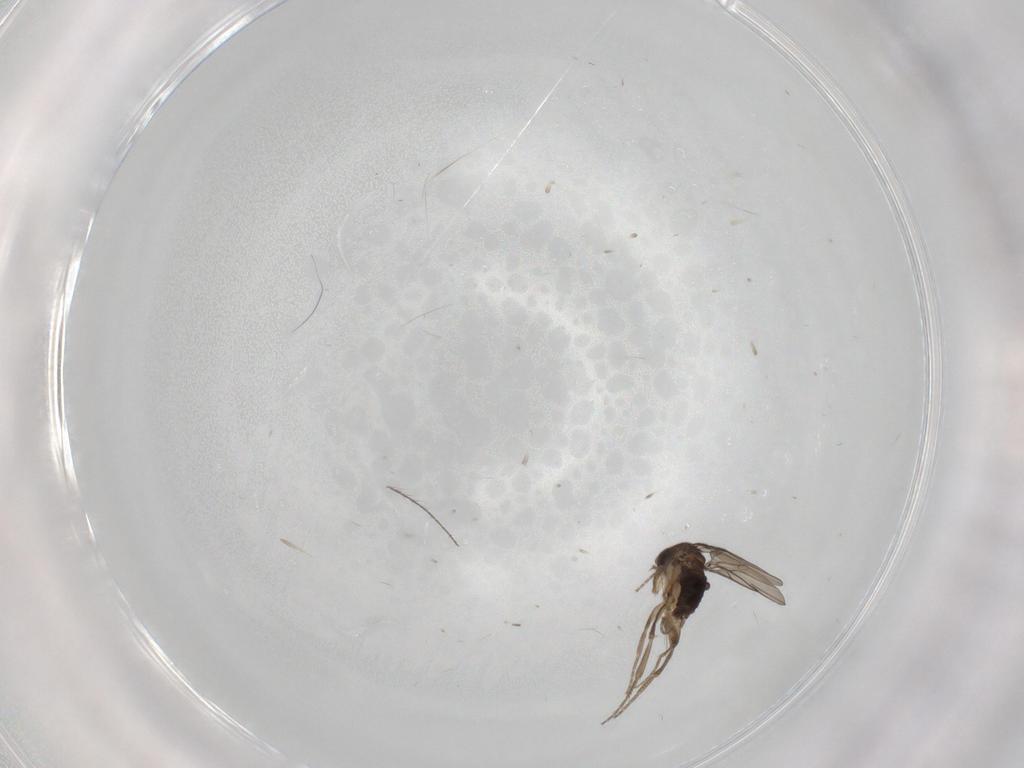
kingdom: Animalia
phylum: Arthropoda
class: Insecta
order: Diptera
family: Phoridae
